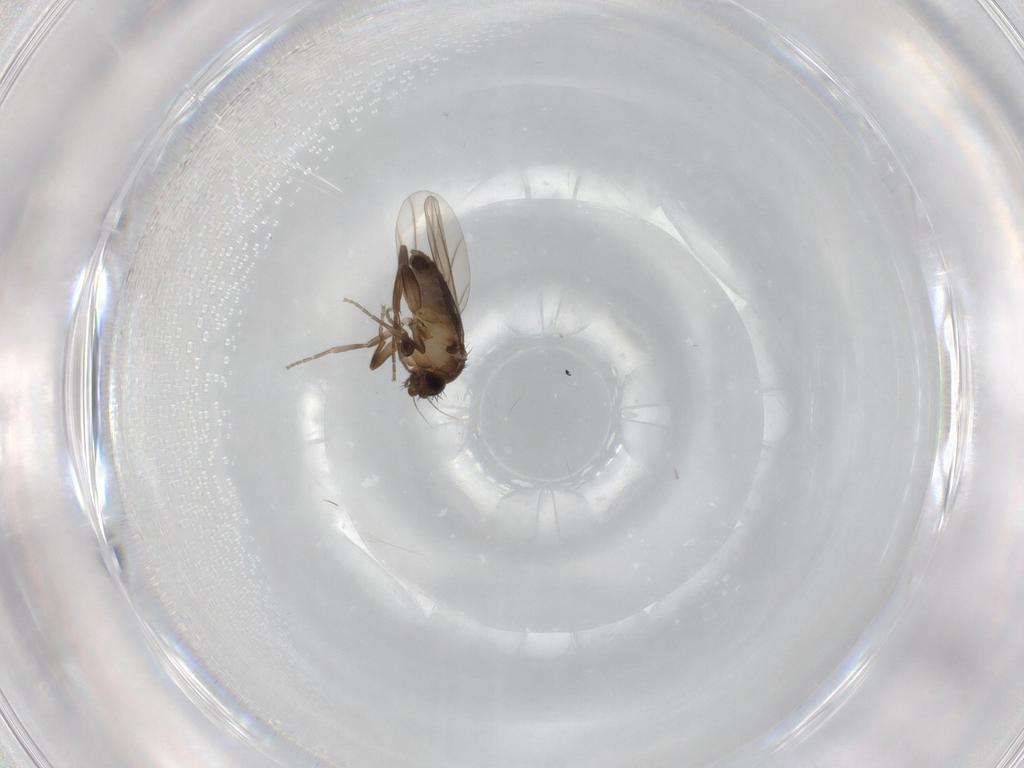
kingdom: Animalia
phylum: Arthropoda
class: Insecta
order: Diptera
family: Phoridae
